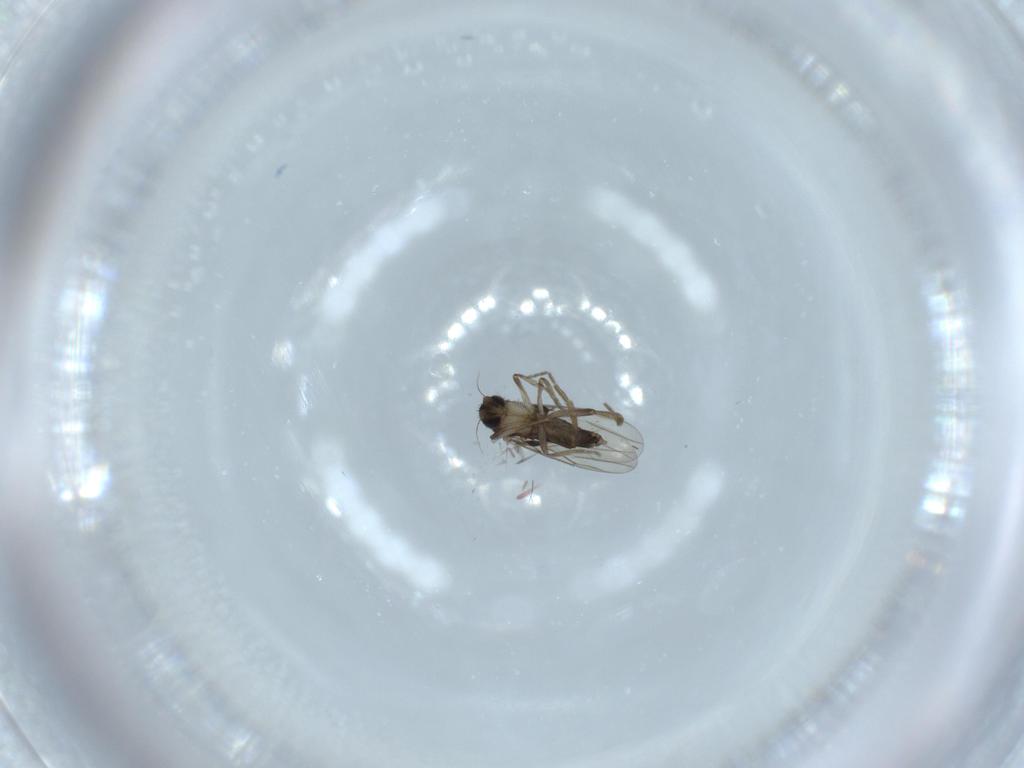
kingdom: Animalia
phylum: Arthropoda
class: Insecta
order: Diptera
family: Phoridae
